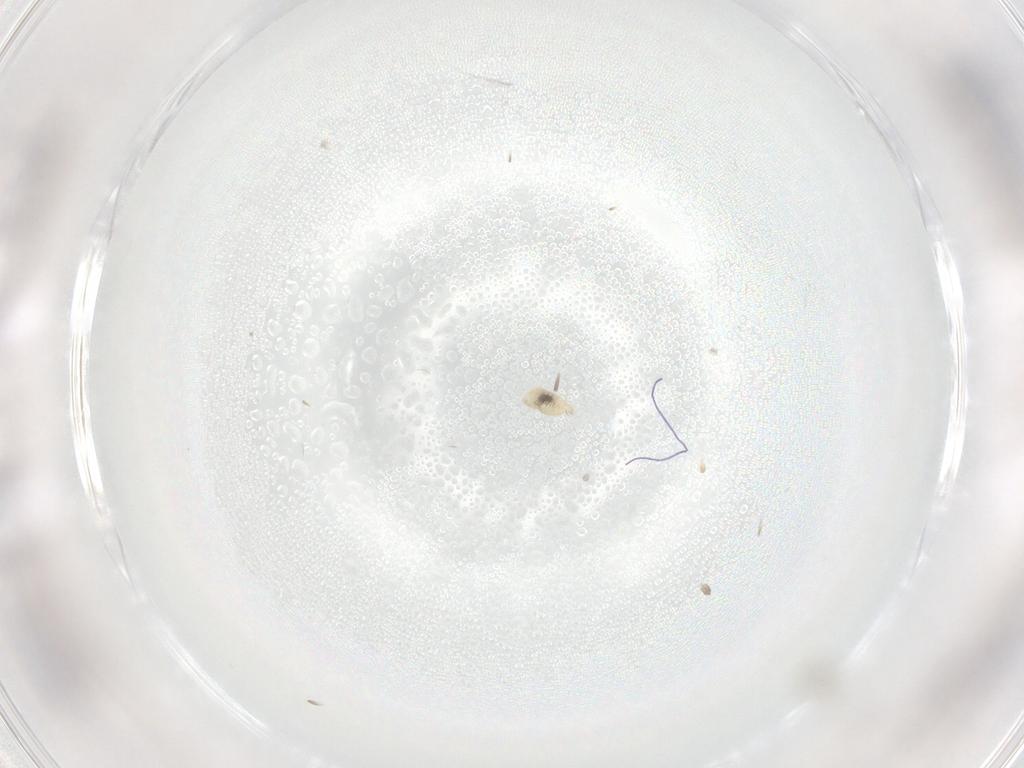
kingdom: Animalia
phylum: Arthropoda
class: Insecta
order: Diptera
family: Cecidomyiidae
